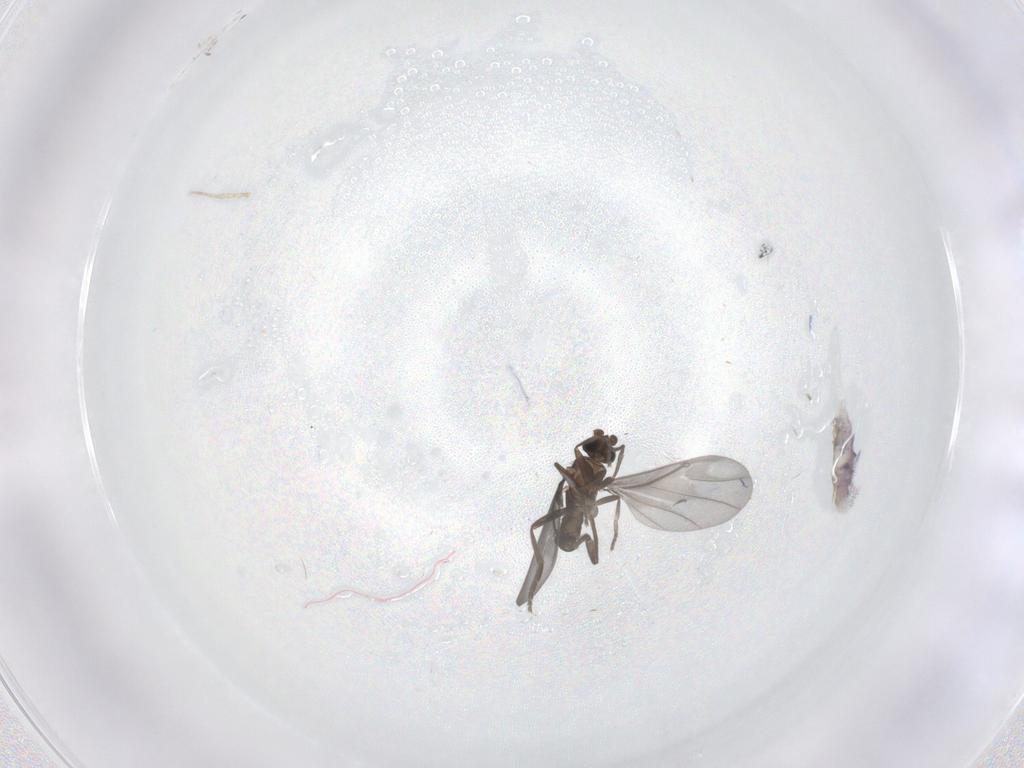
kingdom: Animalia
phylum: Arthropoda
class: Insecta
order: Diptera
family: Phoridae
